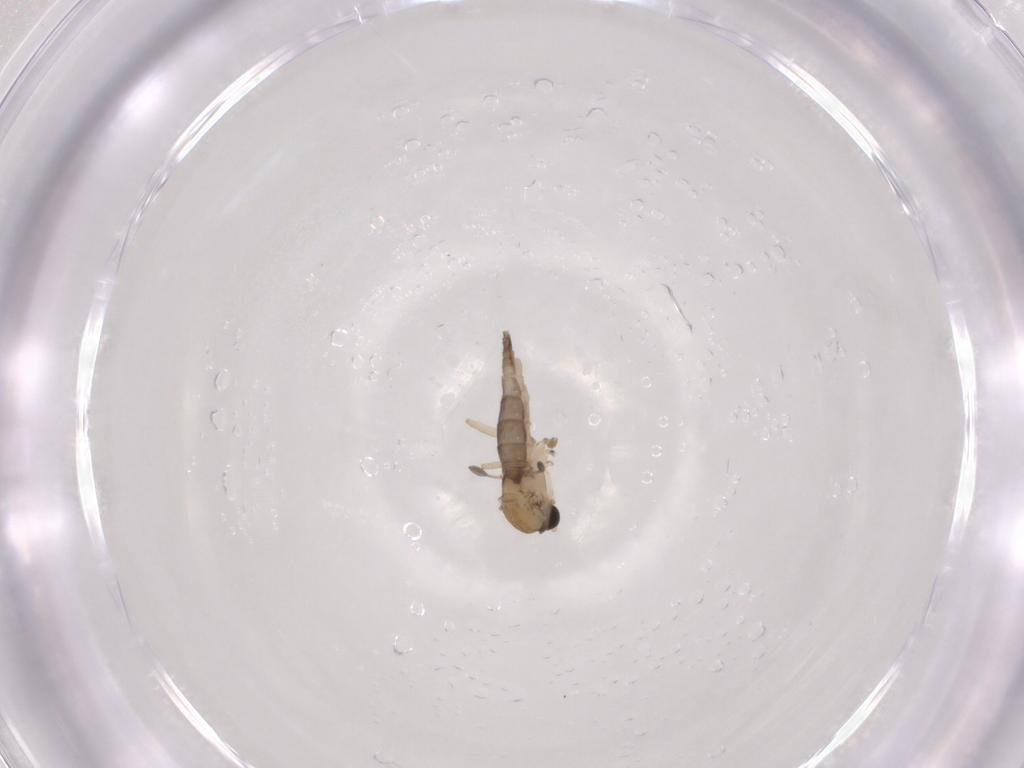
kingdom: Animalia
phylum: Arthropoda
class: Insecta
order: Diptera
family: Sciaridae
